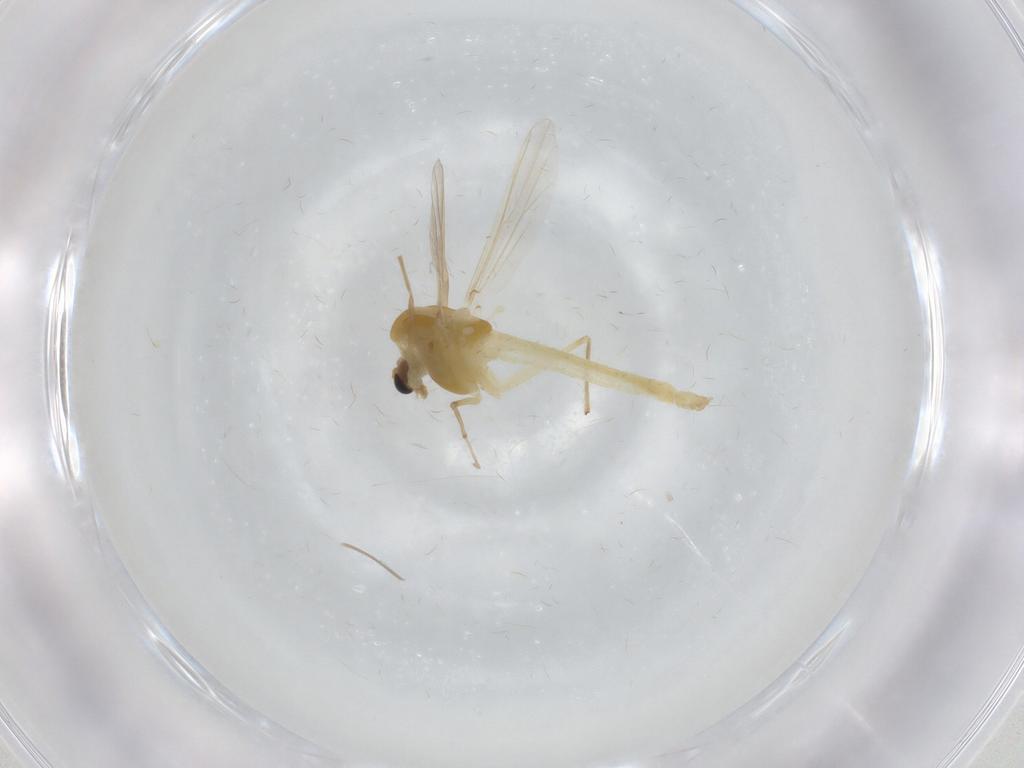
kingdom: Animalia
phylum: Arthropoda
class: Insecta
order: Diptera
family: Chironomidae
